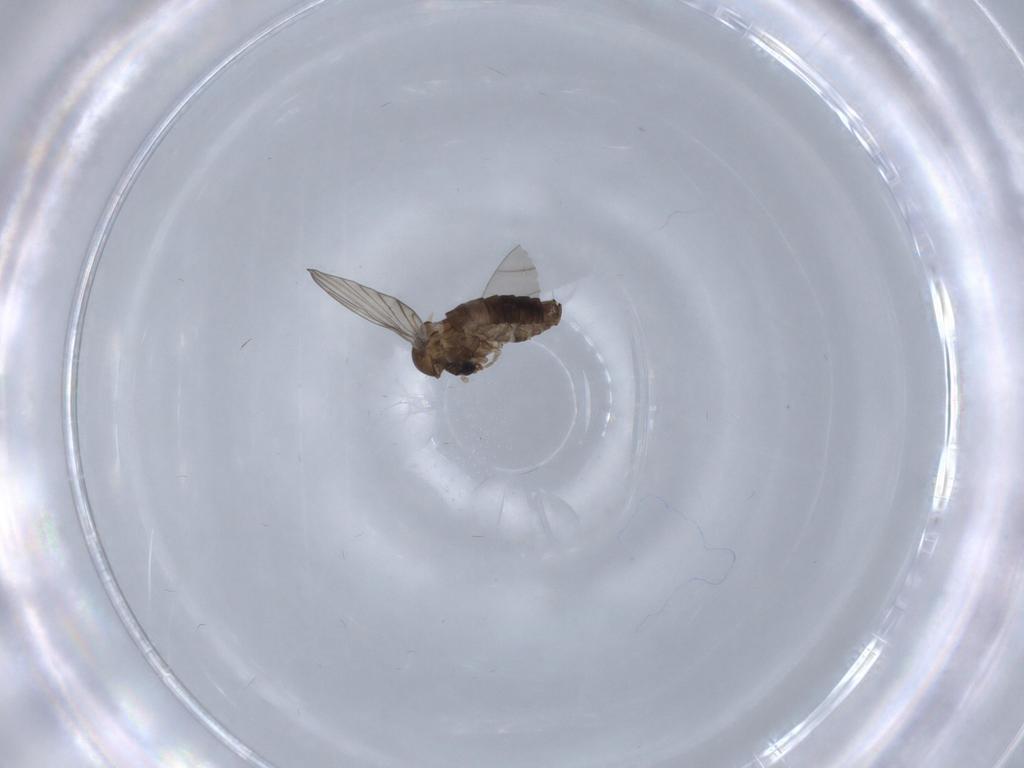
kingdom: Animalia
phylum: Arthropoda
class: Insecta
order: Diptera
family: Psychodidae
